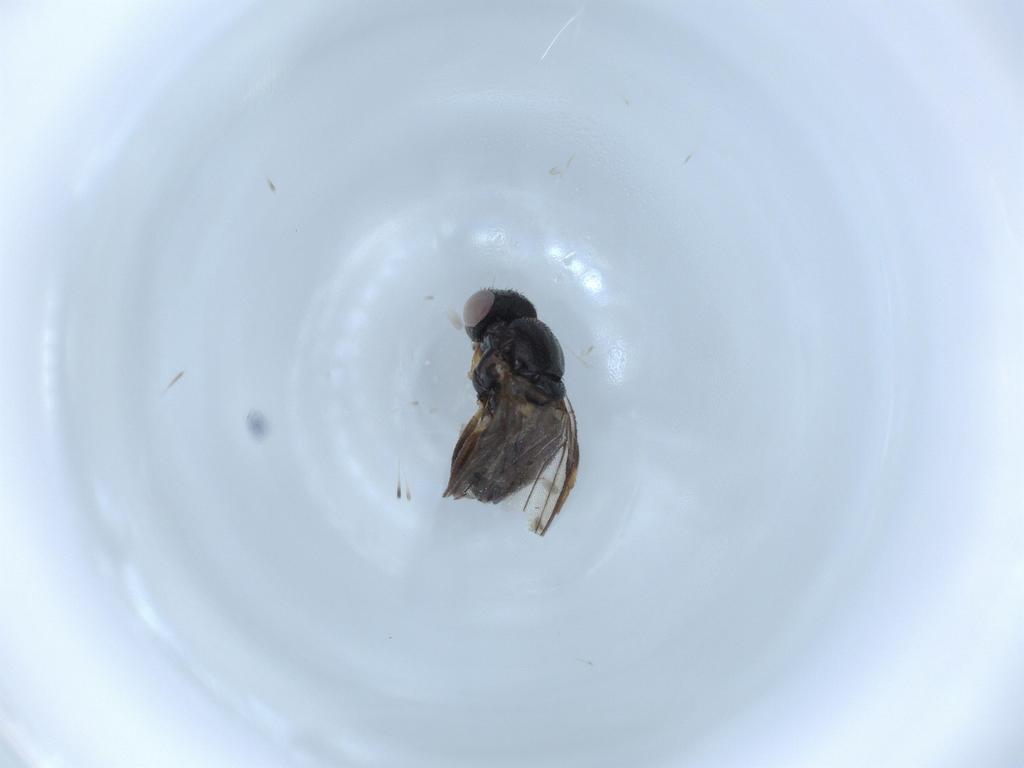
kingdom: Animalia
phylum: Arthropoda
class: Insecta
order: Diptera
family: Chloropidae
